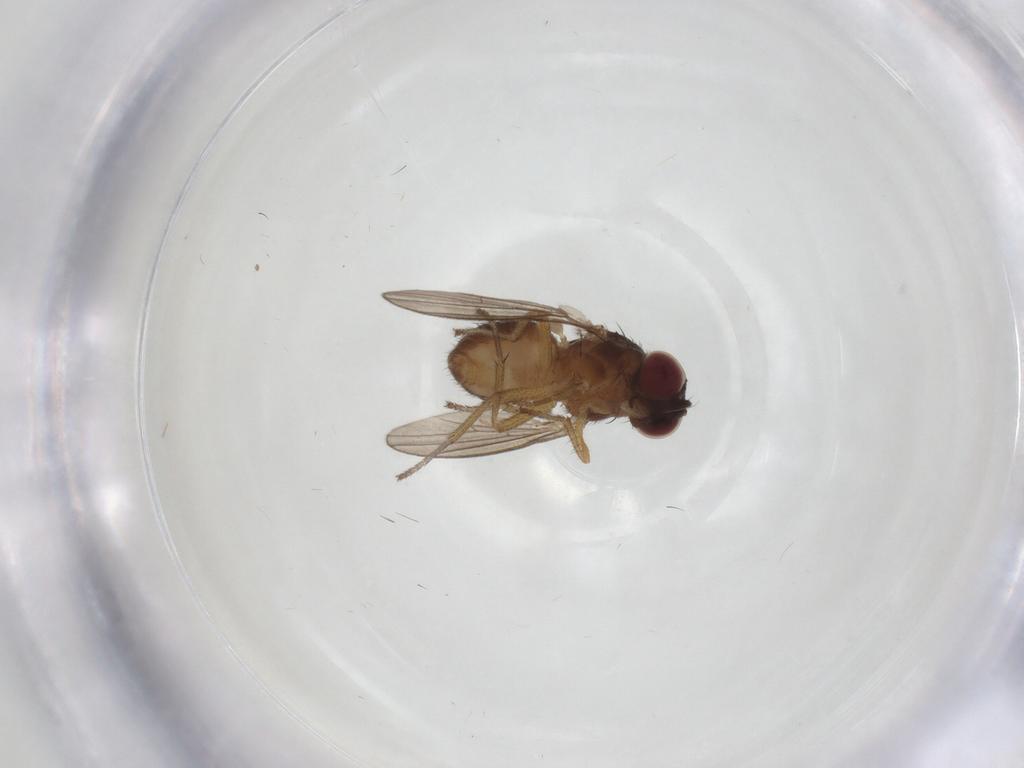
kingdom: Animalia
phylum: Arthropoda
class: Insecta
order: Diptera
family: Sphaeroceridae
